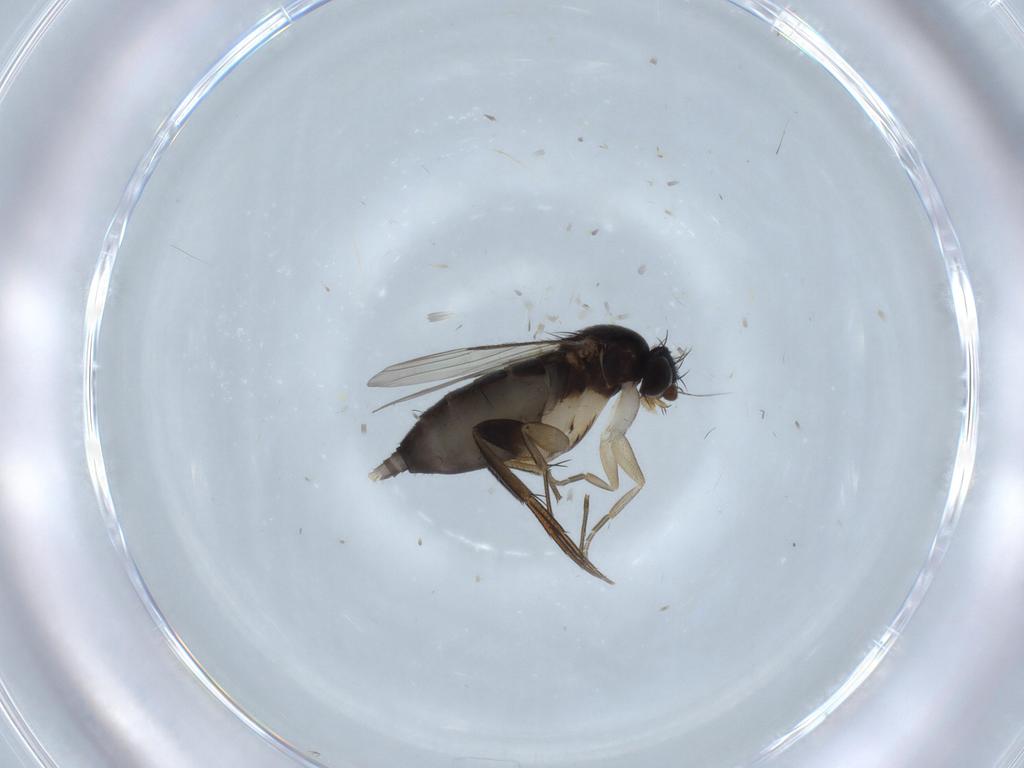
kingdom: Animalia
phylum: Arthropoda
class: Insecta
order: Diptera
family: Phoridae
